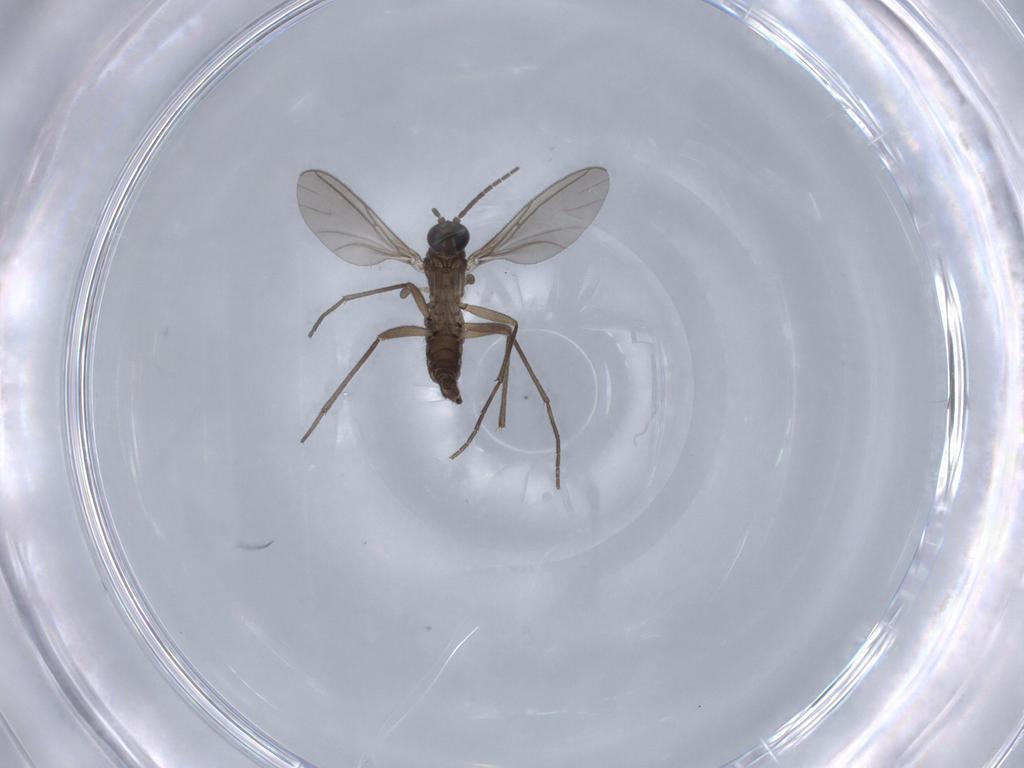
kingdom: Animalia
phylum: Arthropoda
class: Insecta
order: Diptera
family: Sciaridae
